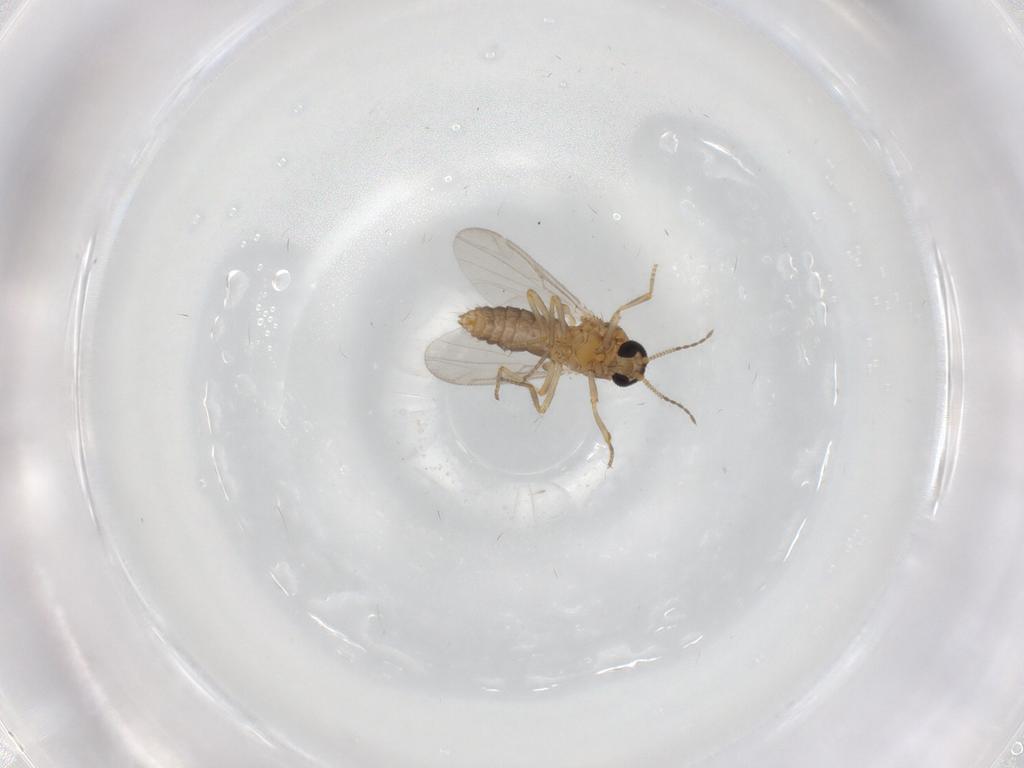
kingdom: Animalia
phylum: Arthropoda
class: Insecta
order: Diptera
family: Ceratopogonidae
